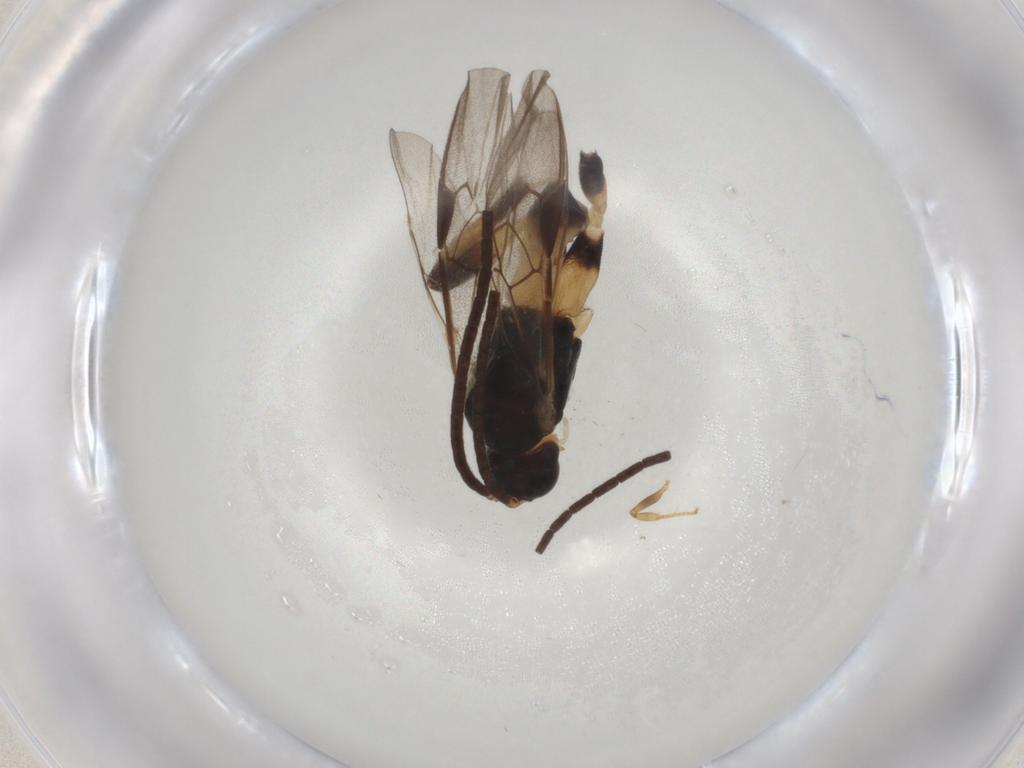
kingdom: Animalia
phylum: Arthropoda
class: Insecta
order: Hymenoptera
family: Braconidae
